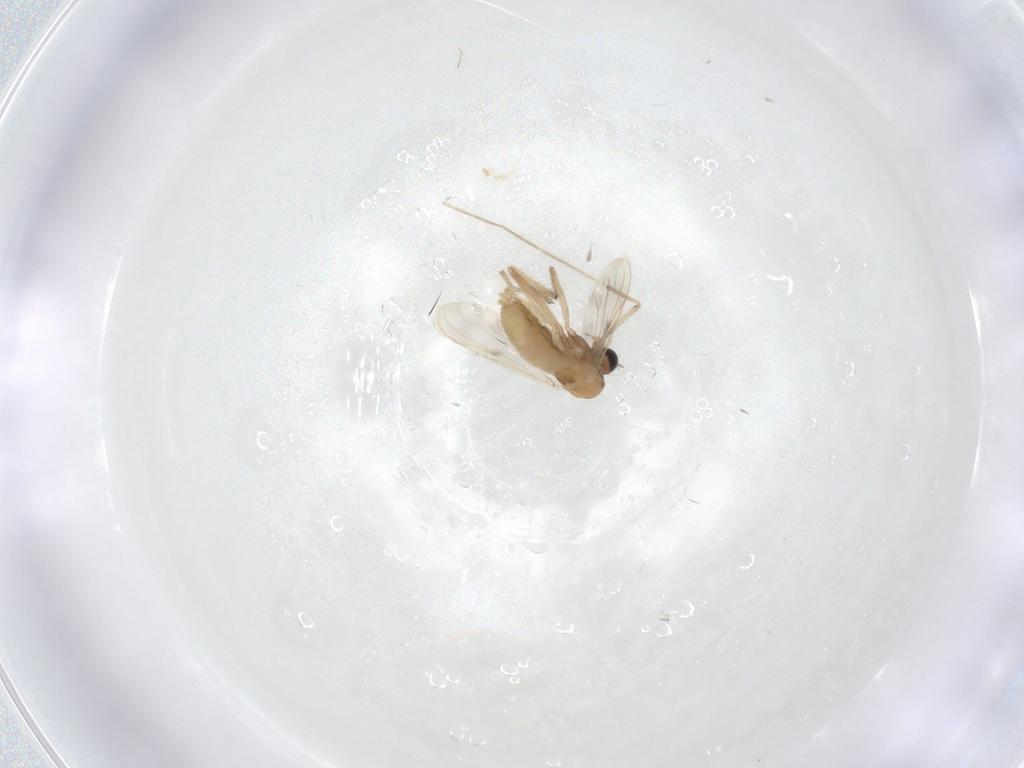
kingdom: Animalia
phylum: Arthropoda
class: Insecta
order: Diptera
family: Chironomidae
